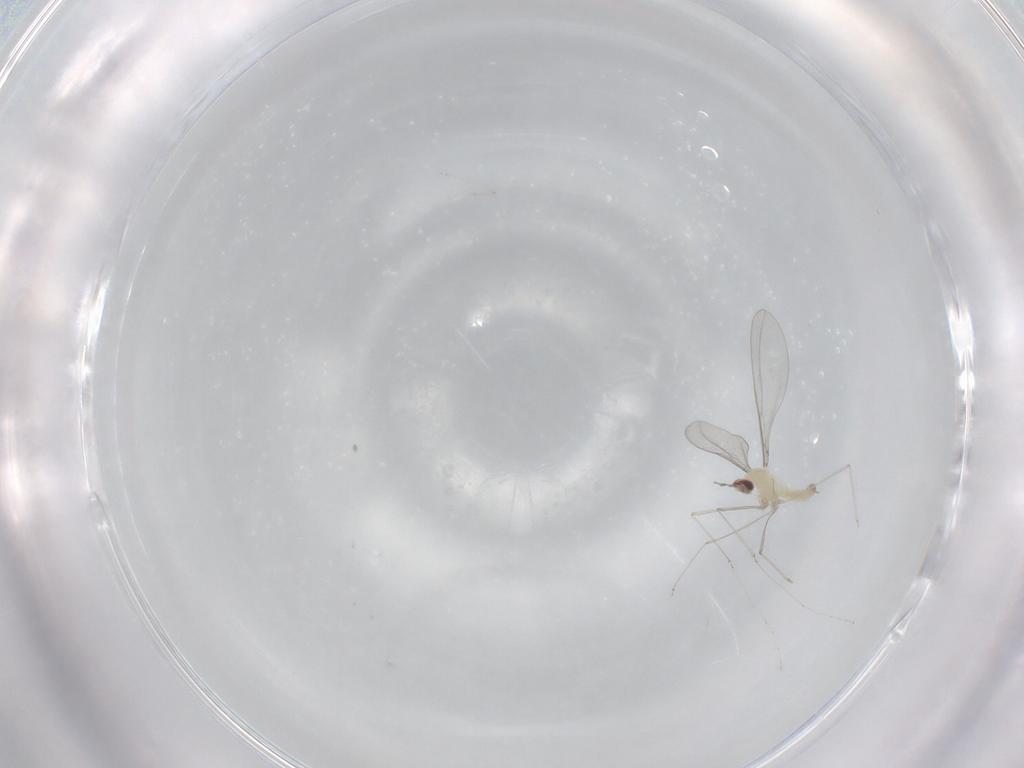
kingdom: Animalia
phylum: Arthropoda
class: Insecta
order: Diptera
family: Cecidomyiidae
